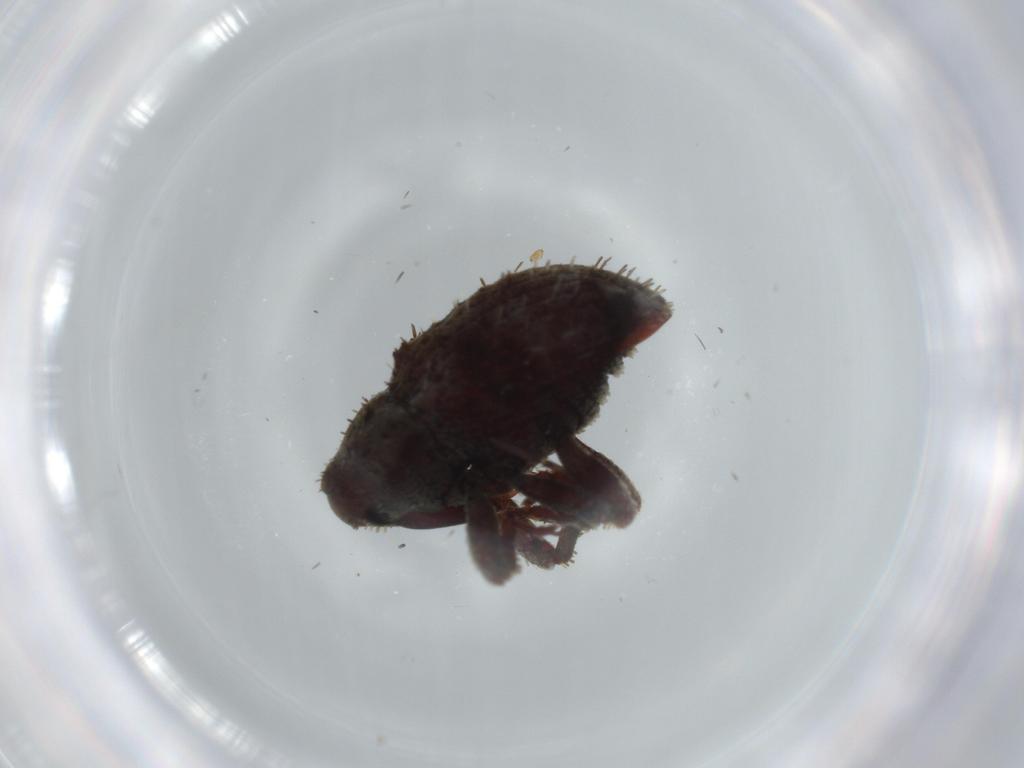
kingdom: Animalia
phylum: Arthropoda
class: Insecta
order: Coleoptera
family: Curculionidae
